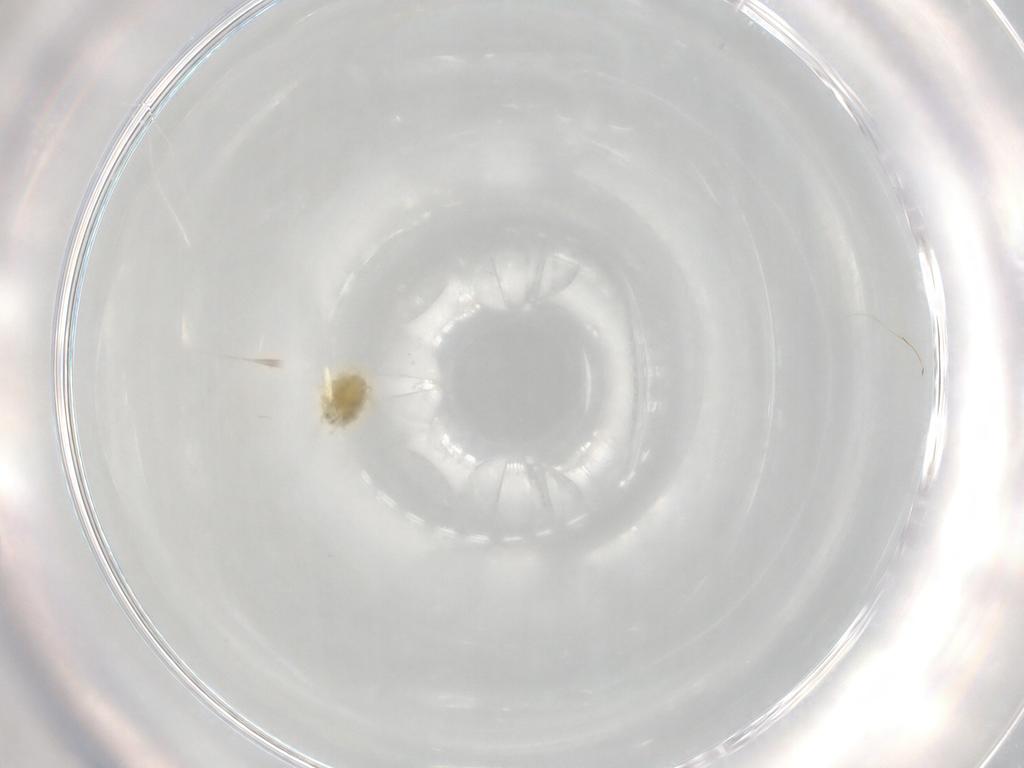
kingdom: Animalia
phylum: Arthropoda
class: Arachnida
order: Trombidiformes
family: Tetranychidae
